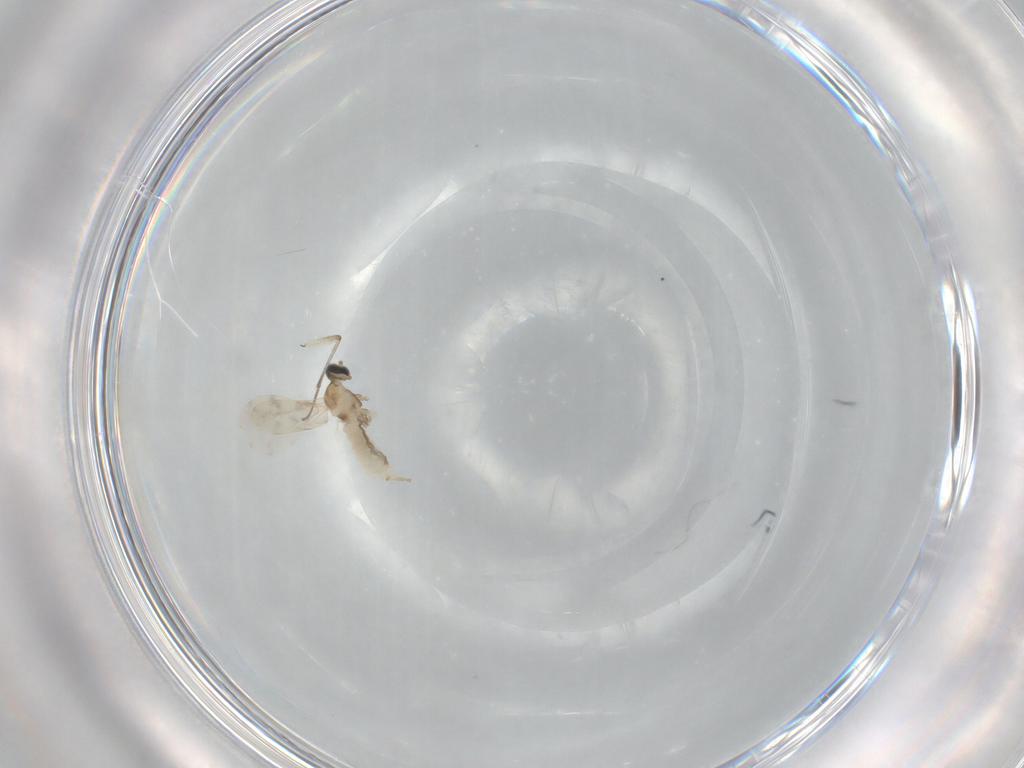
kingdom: Animalia
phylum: Arthropoda
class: Insecta
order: Diptera
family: Cecidomyiidae
